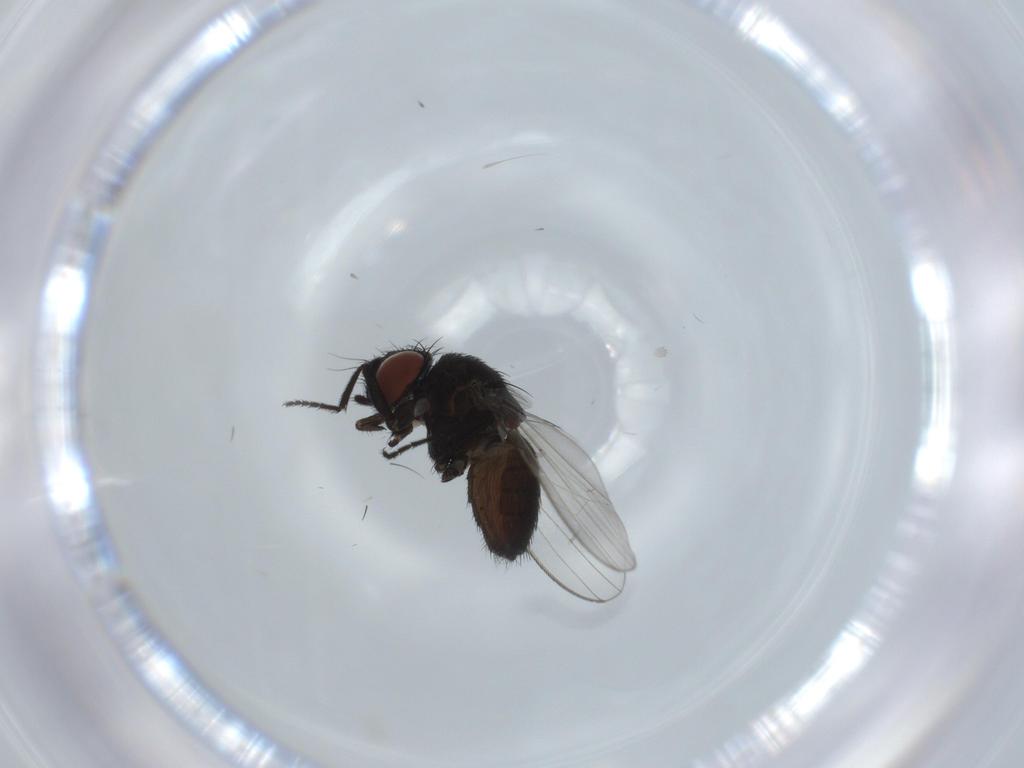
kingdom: Animalia
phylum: Arthropoda
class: Insecta
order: Diptera
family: Milichiidae
